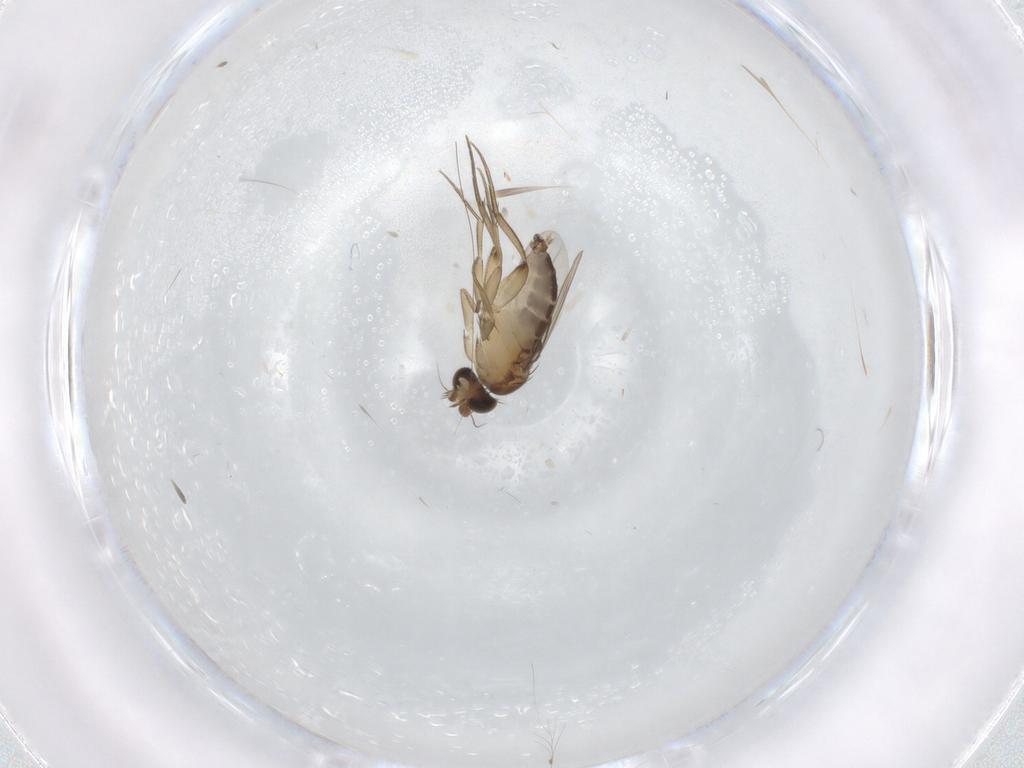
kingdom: Animalia
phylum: Arthropoda
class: Insecta
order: Diptera
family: Phoridae
